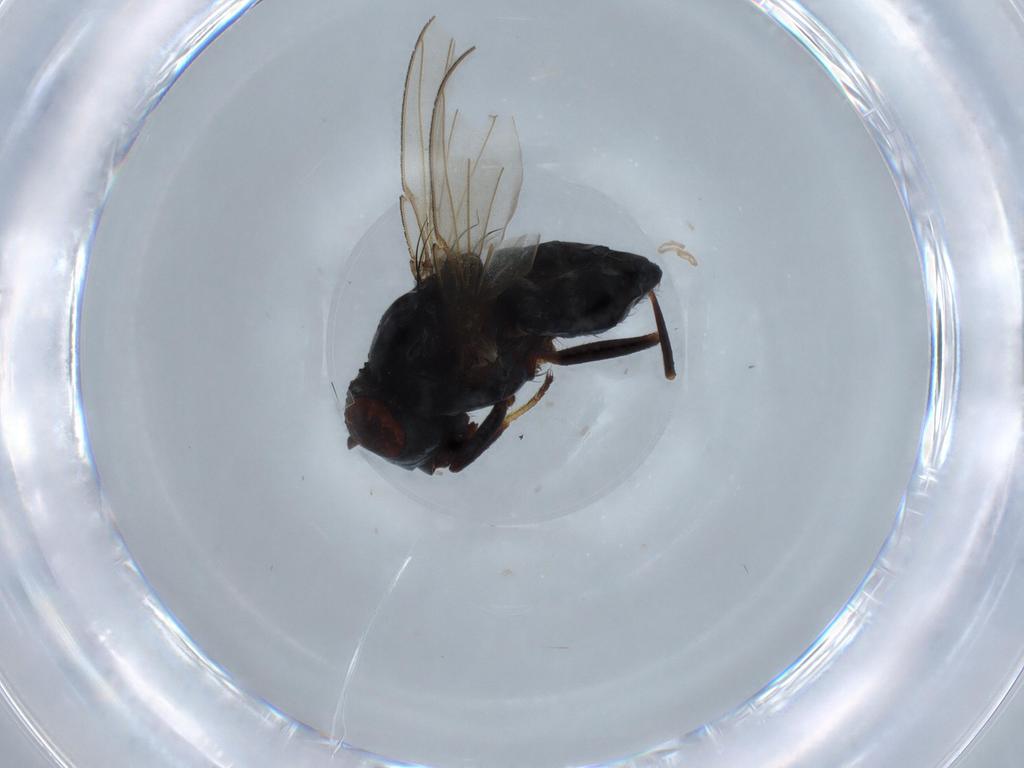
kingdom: Animalia
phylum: Arthropoda
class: Insecta
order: Diptera
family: Sciaridae
